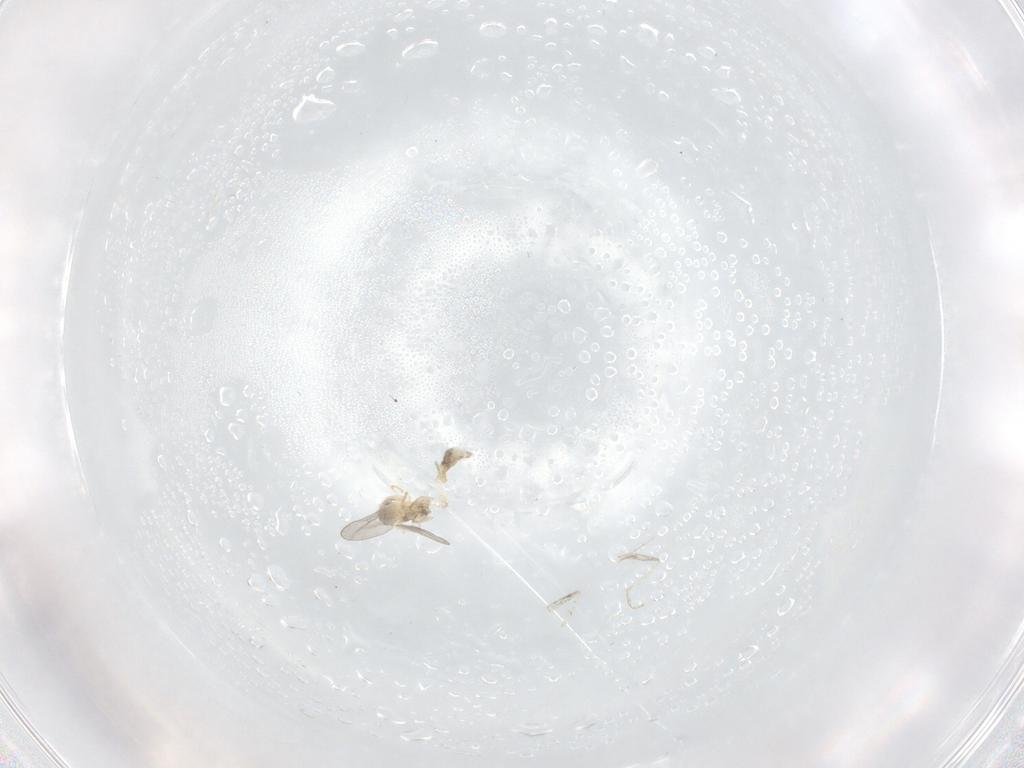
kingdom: Animalia
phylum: Arthropoda
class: Insecta
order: Diptera
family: Cecidomyiidae
